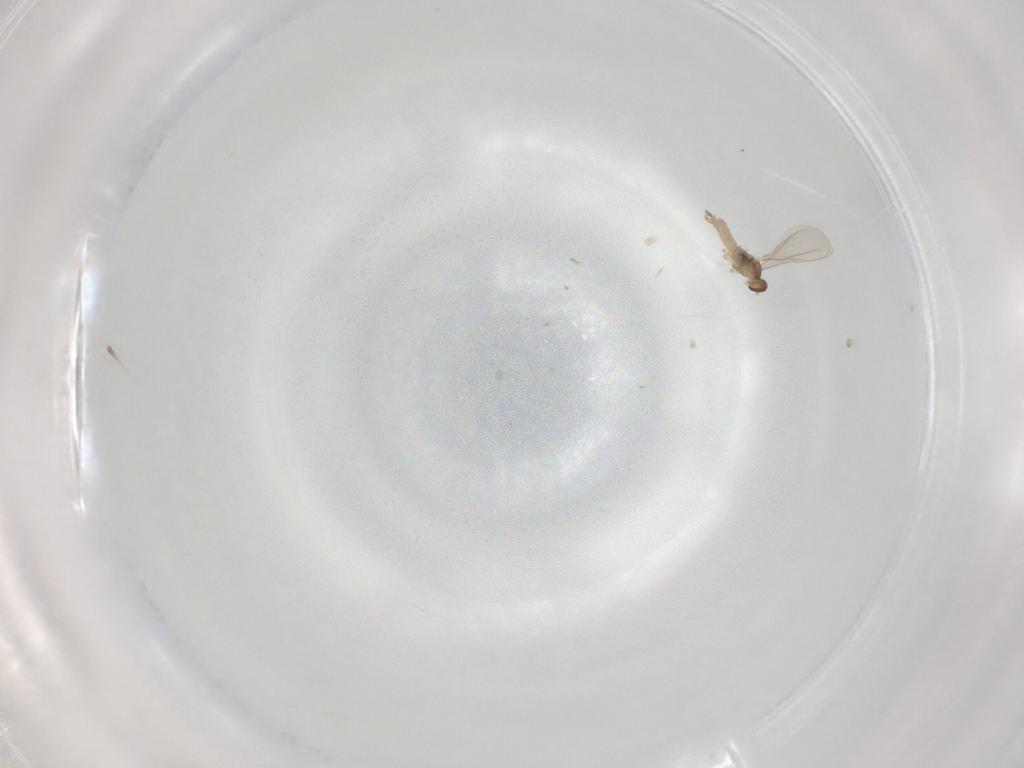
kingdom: Animalia
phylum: Arthropoda
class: Insecta
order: Diptera
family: Cecidomyiidae
